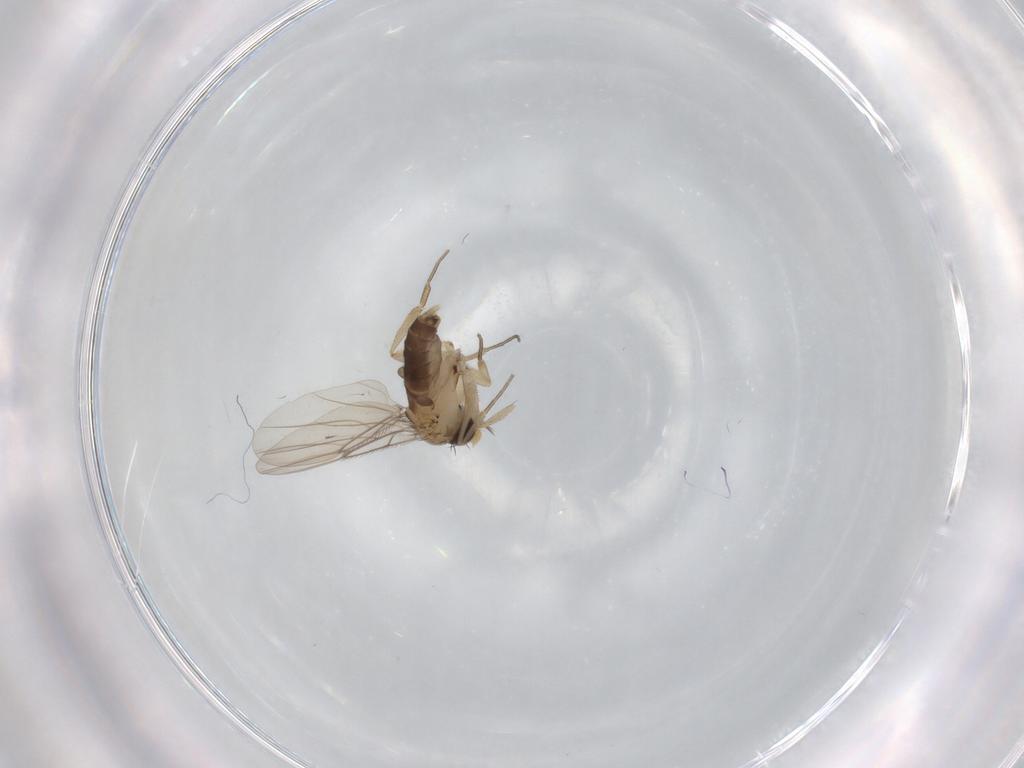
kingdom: Animalia
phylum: Arthropoda
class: Insecta
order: Diptera
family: Phoridae
